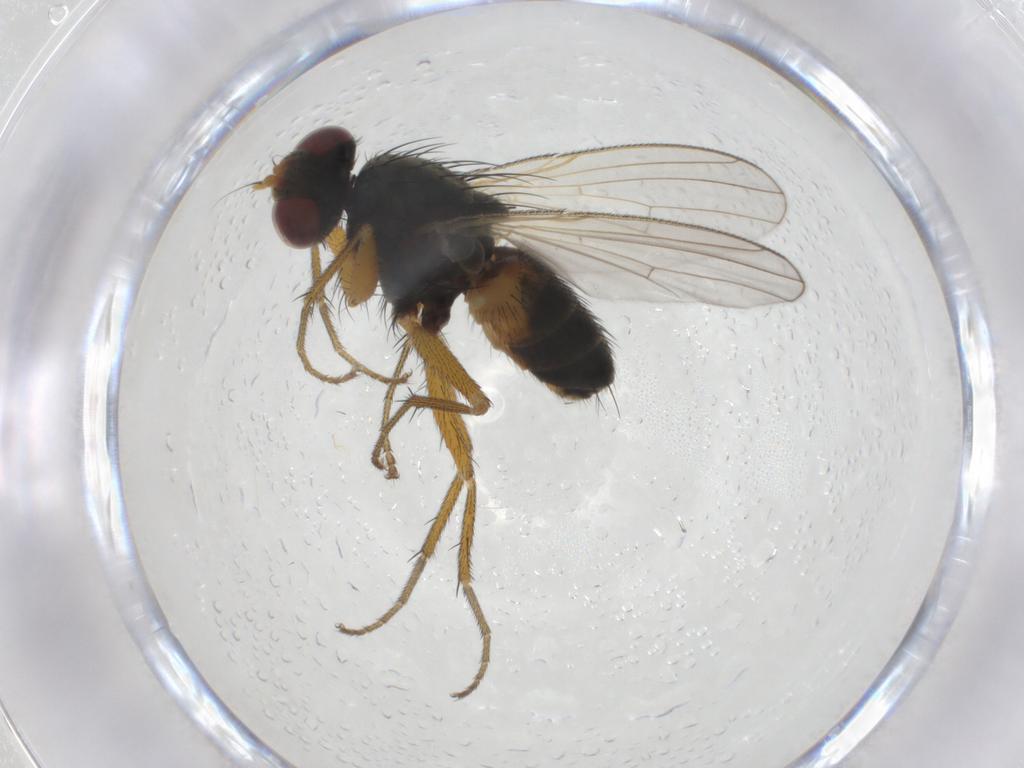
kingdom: Animalia
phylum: Arthropoda
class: Insecta
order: Diptera
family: Muscidae
